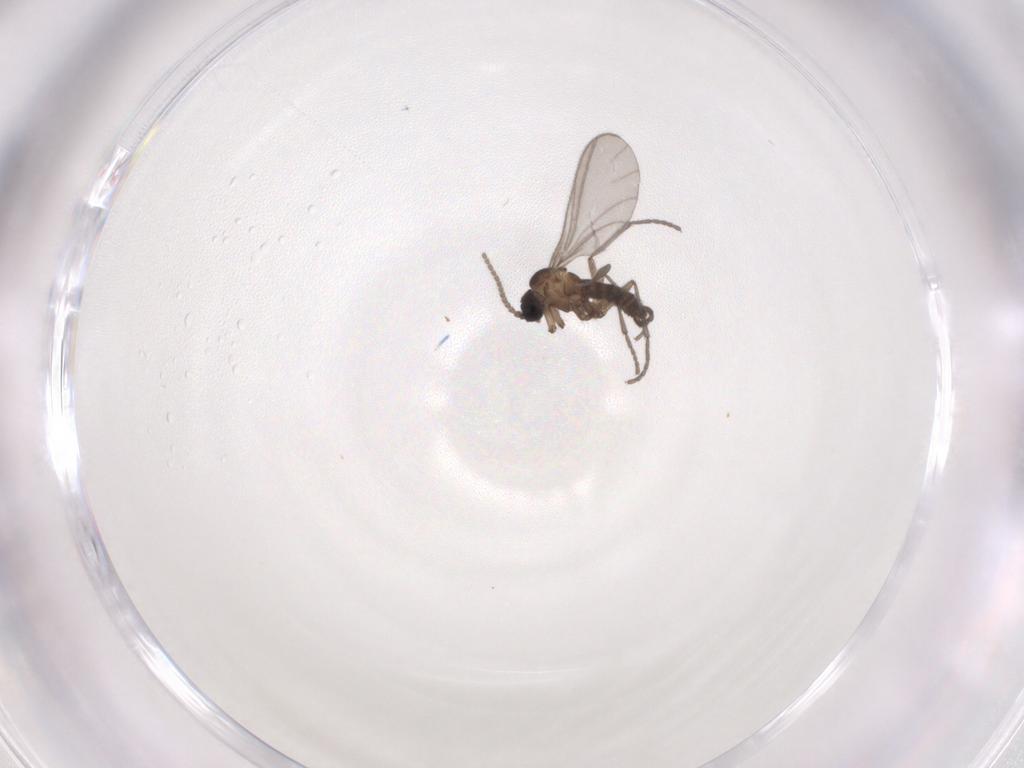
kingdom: Animalia
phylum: Arthropoda
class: Insecta
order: Diptera
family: Sciaridae
